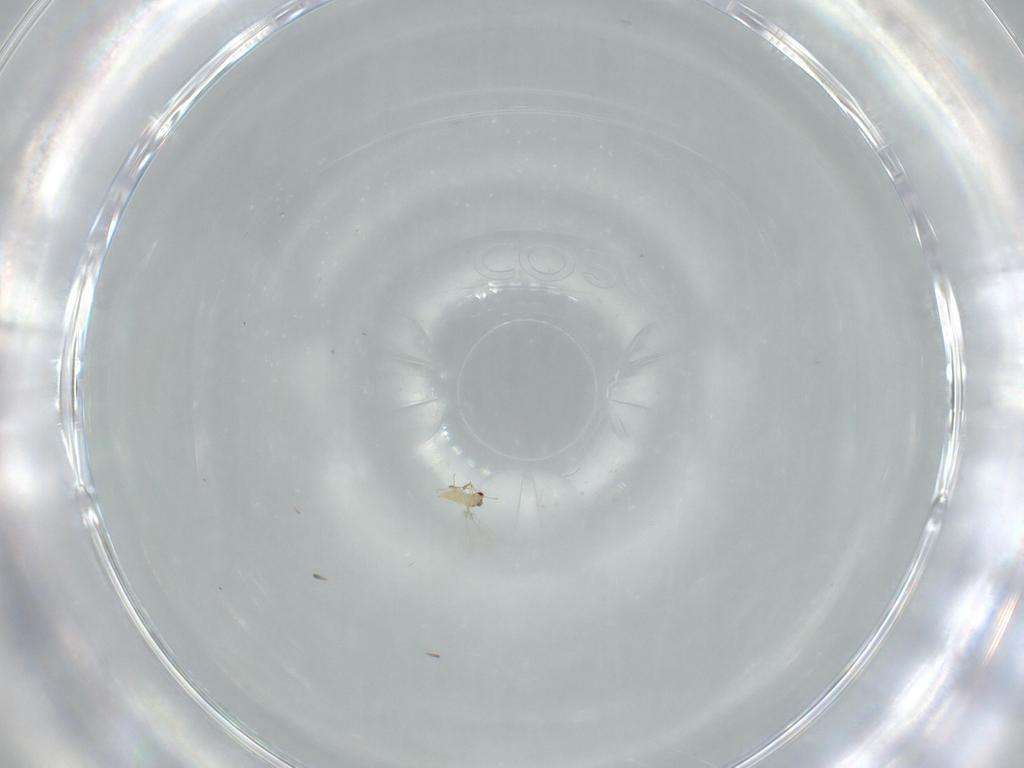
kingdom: Animalia
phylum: Arthropoda
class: Insecta
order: Hymenoptera
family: Mymaridae
